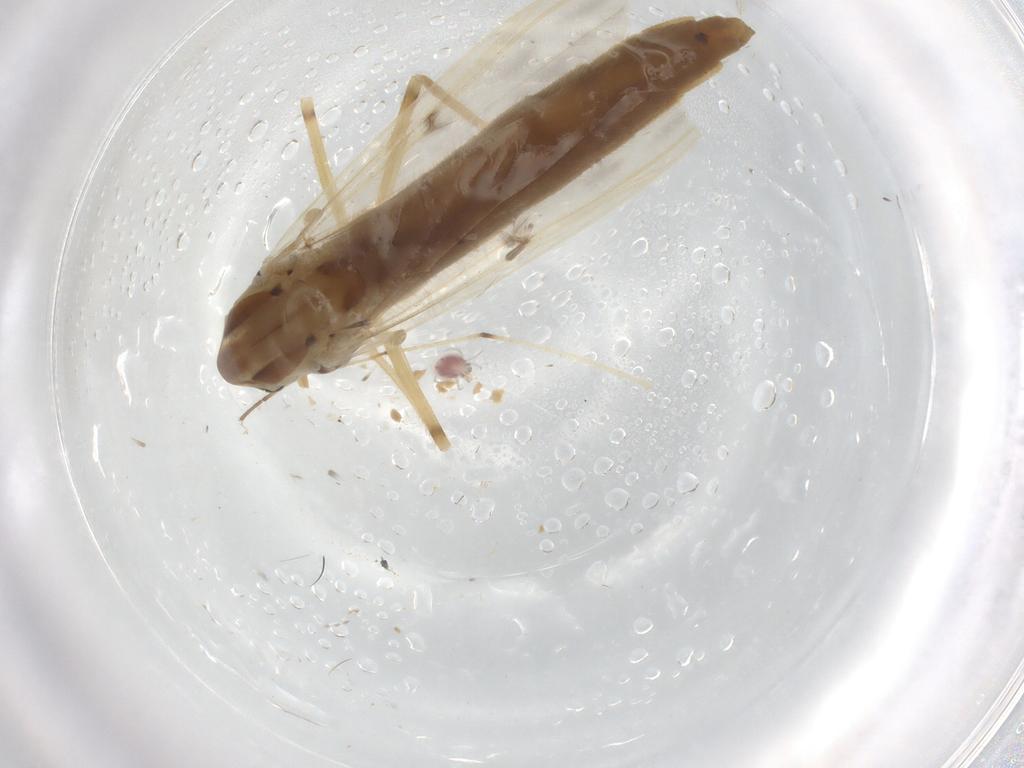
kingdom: Animalia
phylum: Arthropoda
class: Insecta
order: Diptera
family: Chironomidae
